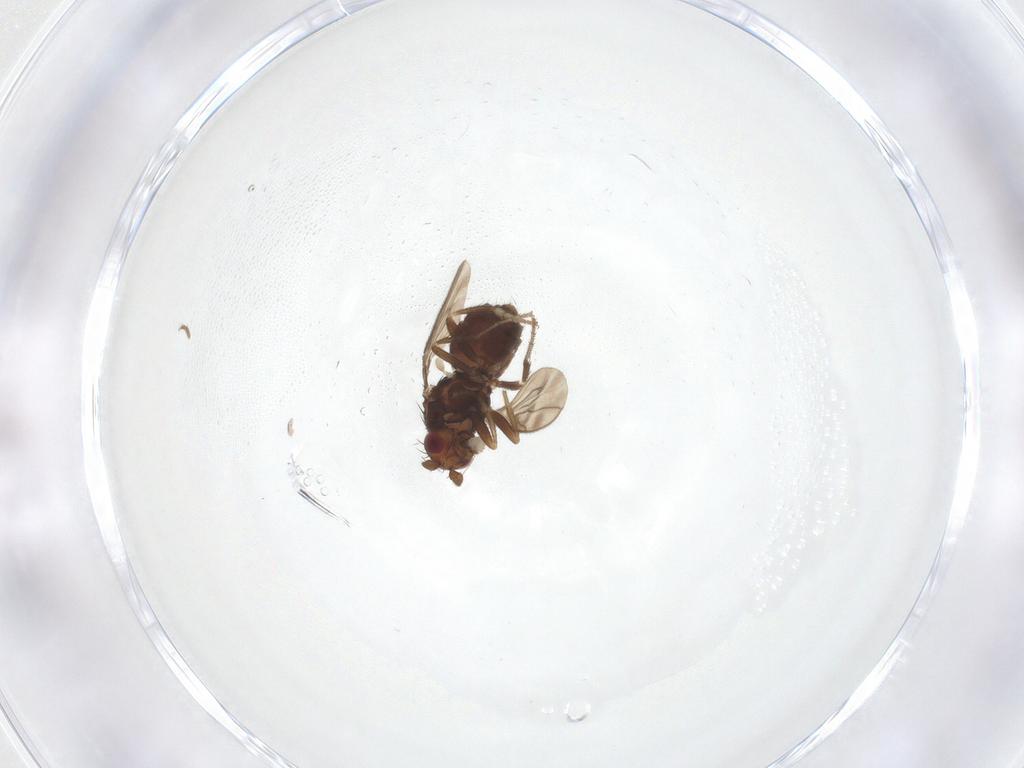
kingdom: Animalia
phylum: Arthropoda
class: Insecta
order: Diptera
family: Sphaeroceridae
